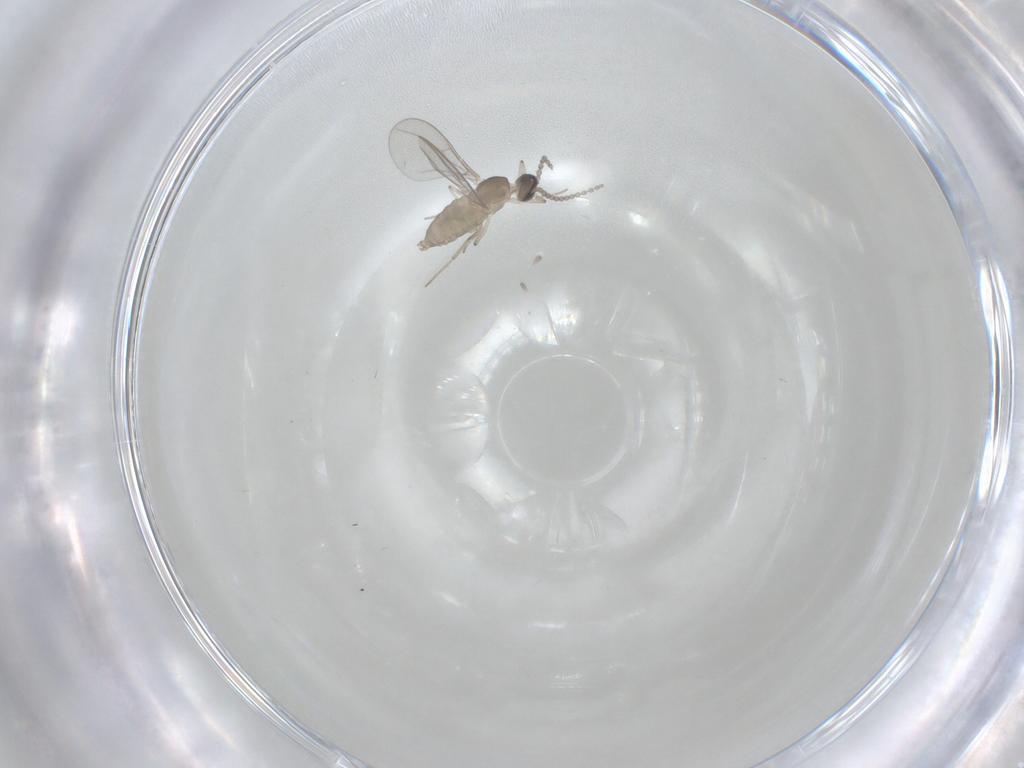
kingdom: Animalia
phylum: Arthropoda
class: Insecta
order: Diptera
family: Cecidomyiidae
